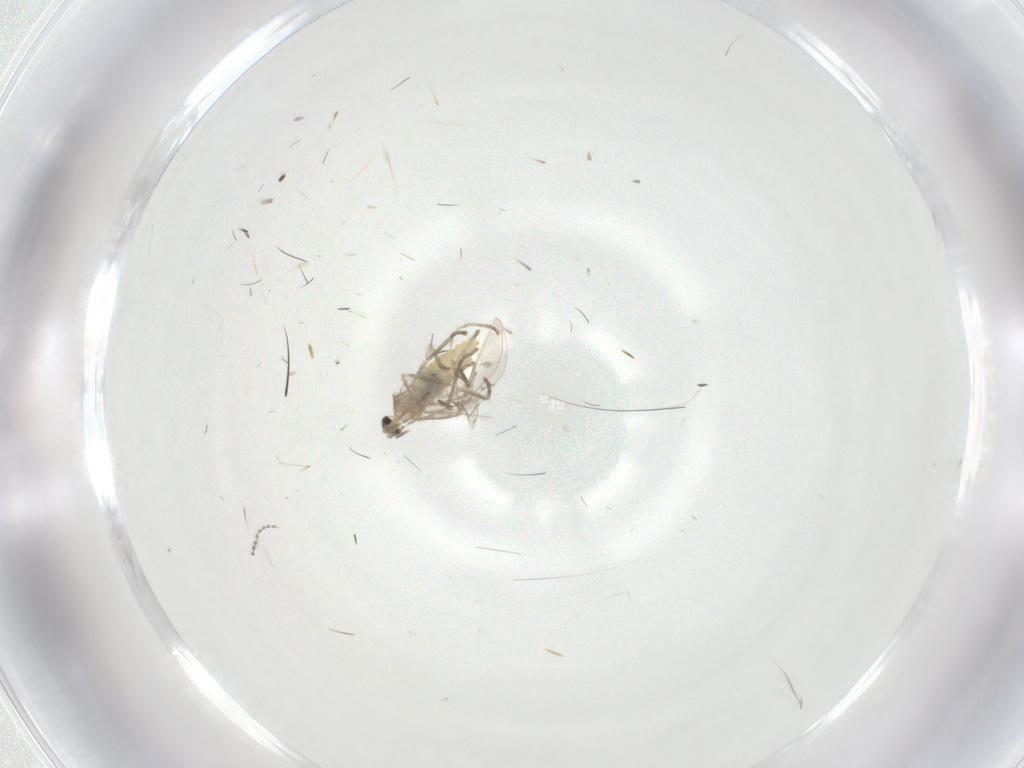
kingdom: Animalia
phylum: Arthropoda
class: Insecta
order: Diptera
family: Cecidomyiidae
